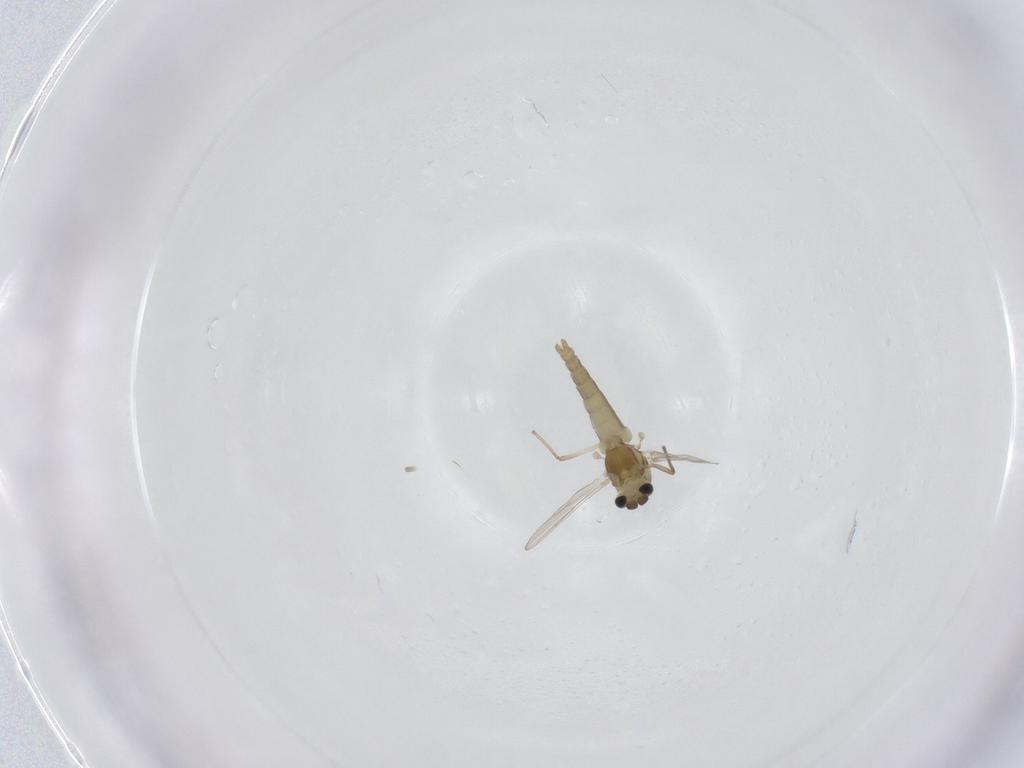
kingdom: Animalia
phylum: Arthropoda
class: Insecta
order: Diptera
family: Chironomidae
